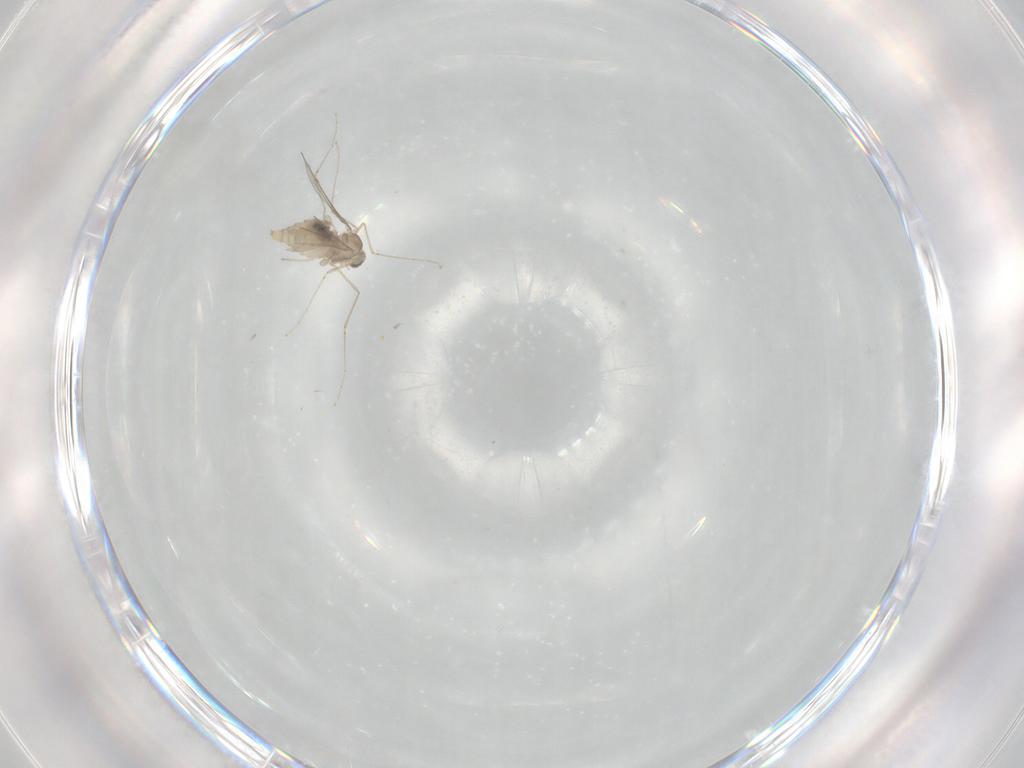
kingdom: Animalia
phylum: Arthropoda
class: Insecta
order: Diptera
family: Cecidomyiidae
